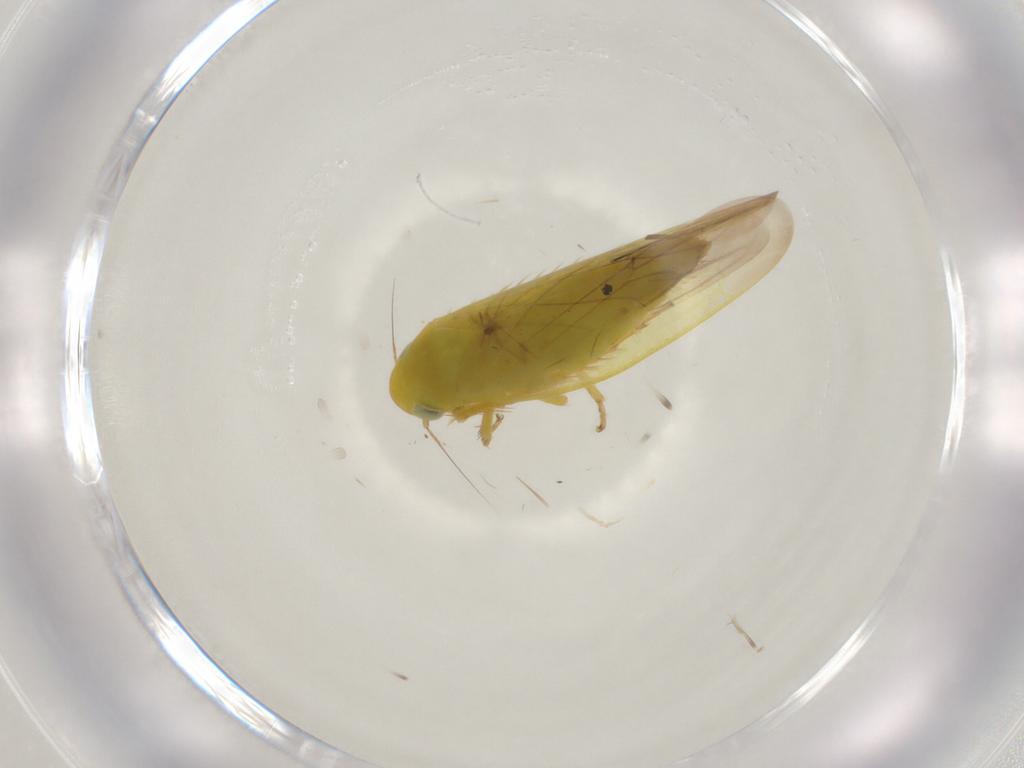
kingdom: Animalia
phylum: Arthropoda
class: Insecta
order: Hemiptera
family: Cicadellidae
